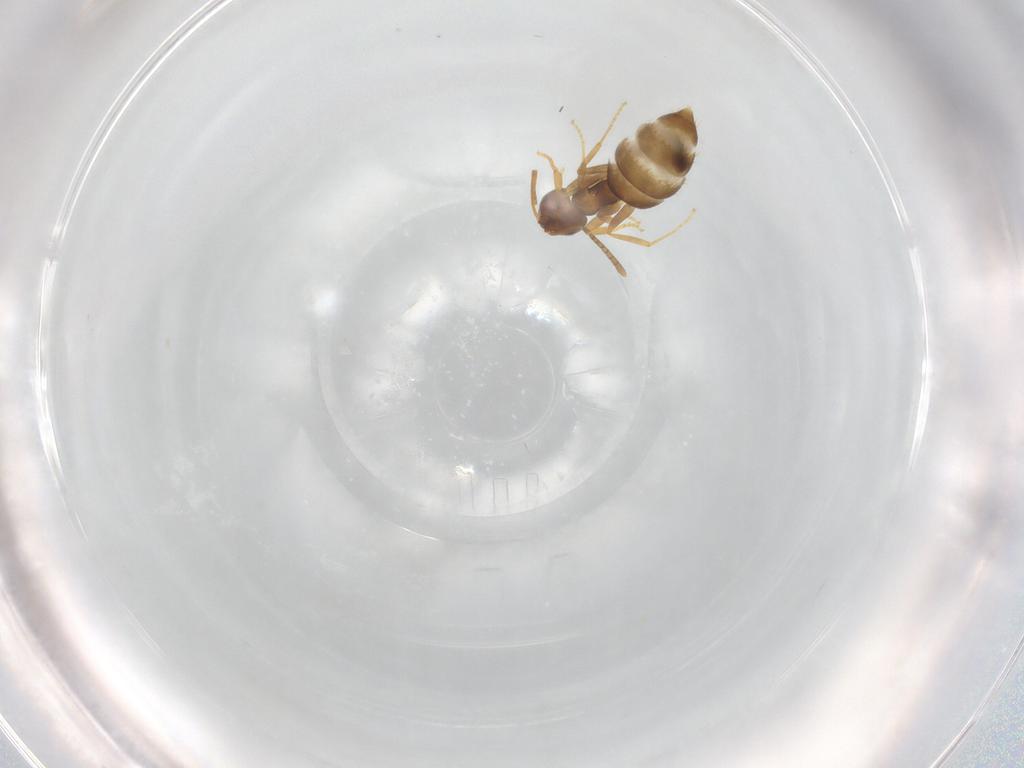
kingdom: Animalia
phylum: Arthropoda
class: Insecta
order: Hymenoptera
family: Formicidae
